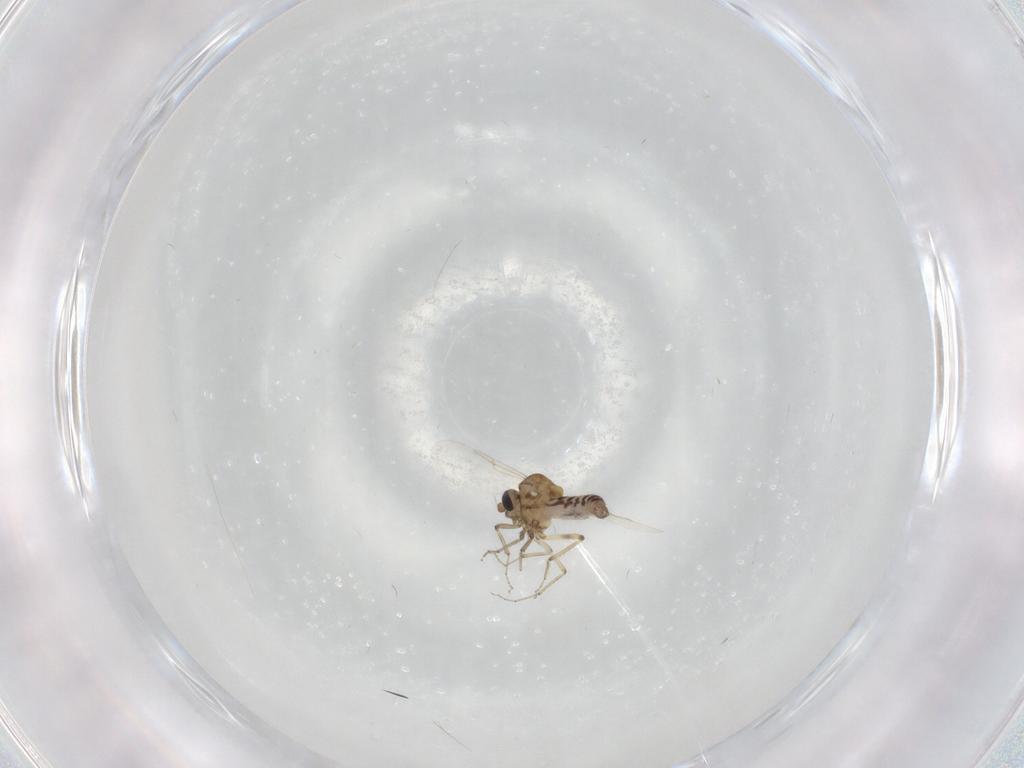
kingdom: Animalia
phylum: Arthropoda
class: Insecta
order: Diptera
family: Ceratopogonidae
